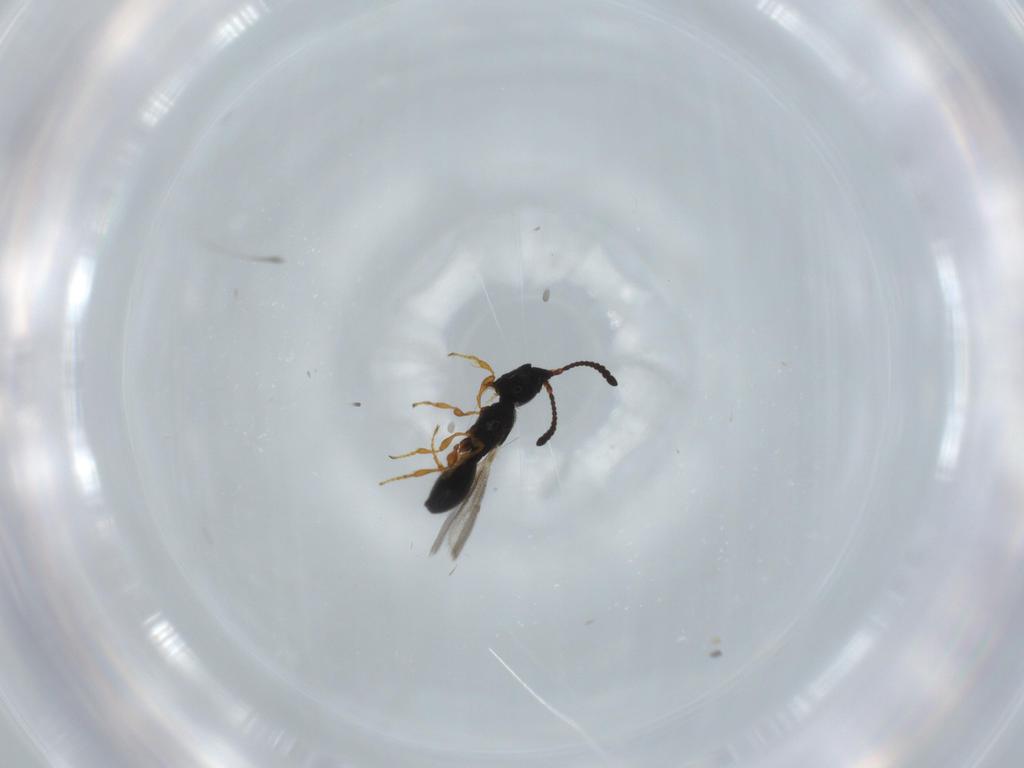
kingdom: Animalia
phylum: Arthropoda
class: Insecta
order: Hymenoptera
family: Diapriidae
